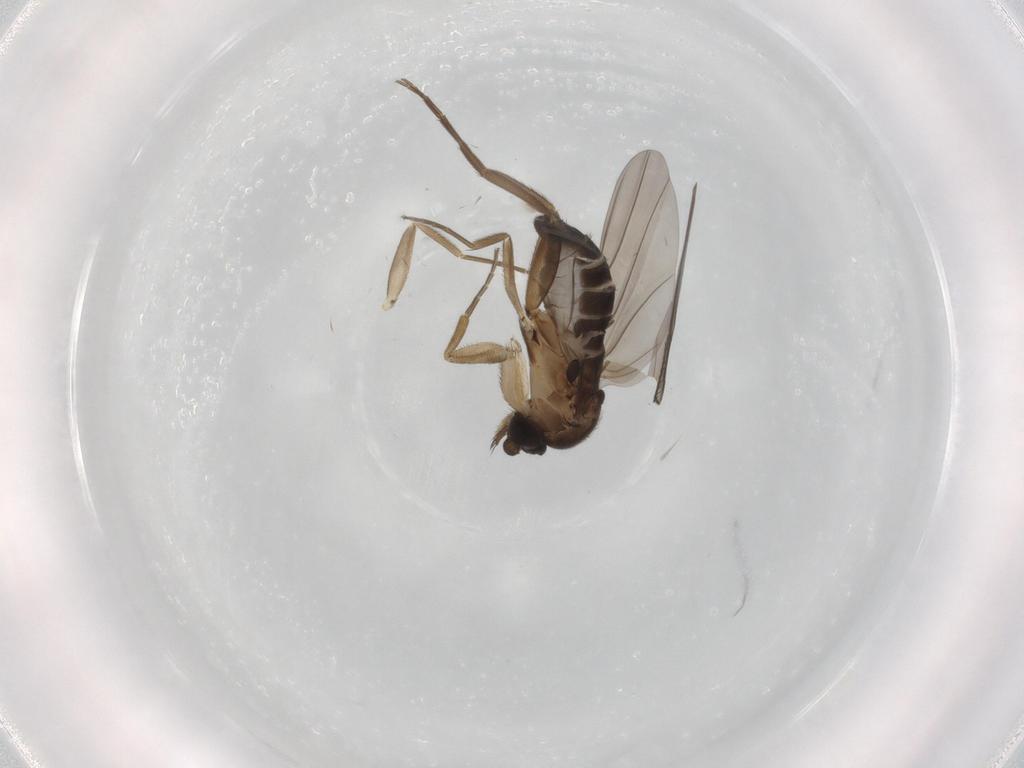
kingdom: Animalia
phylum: Arthropoda
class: Insecta
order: Diptera
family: Phoridae
